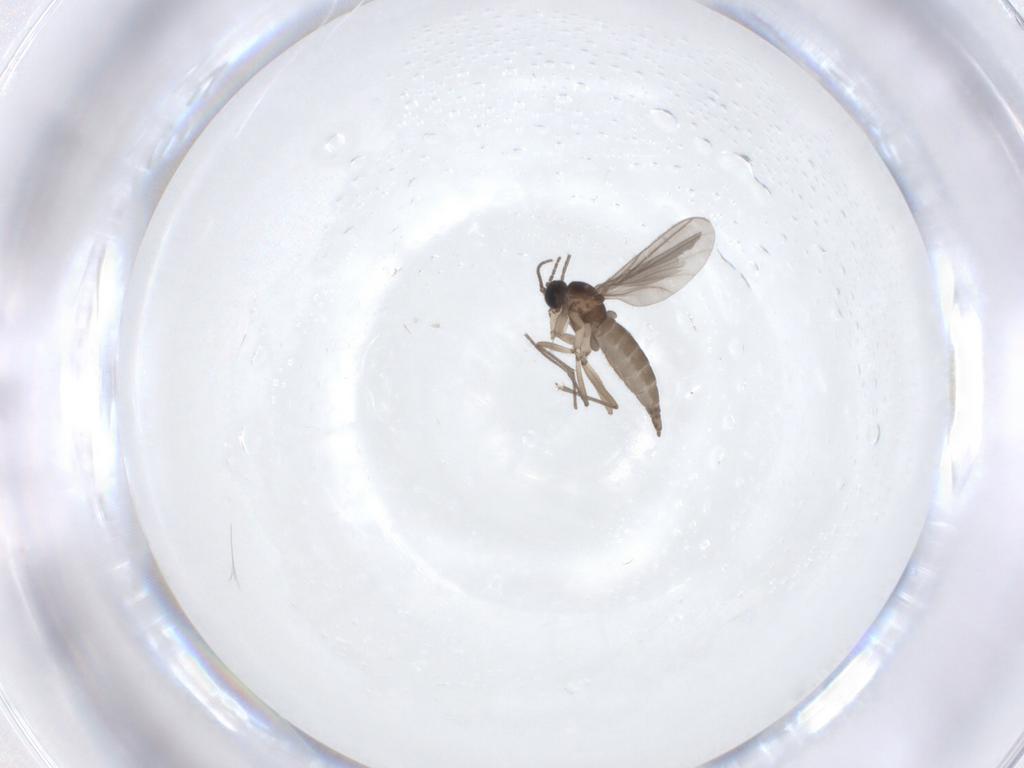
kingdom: Animalia
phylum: Arthropoda
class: Insecta
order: Diptera
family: Sciaridae
